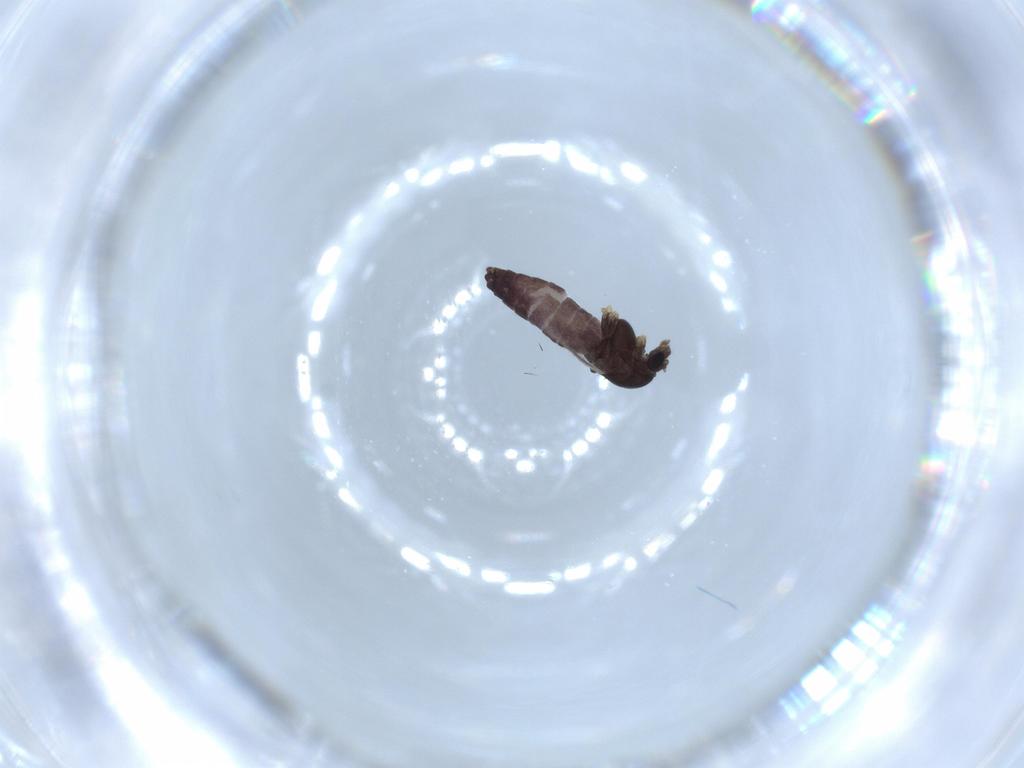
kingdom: Animalia
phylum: Arthropoda
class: Insecta
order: Diptera
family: Chironomidae
